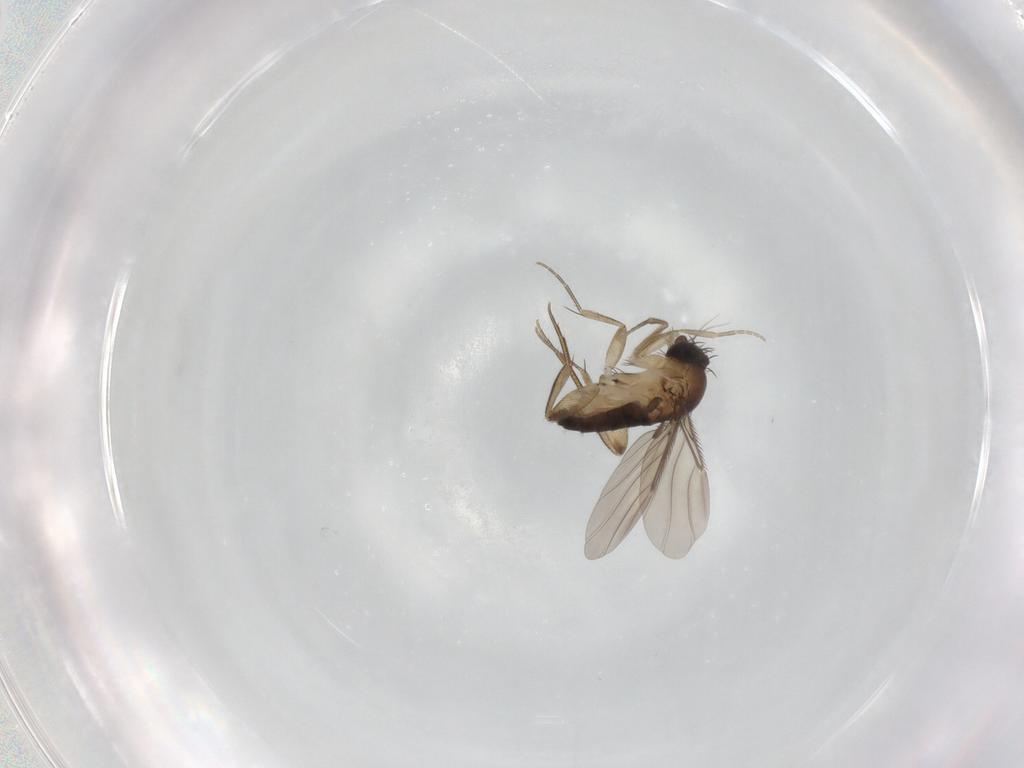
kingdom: Animalia
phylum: Arthropoda
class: Insecta
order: Diptera
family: Phoridae
